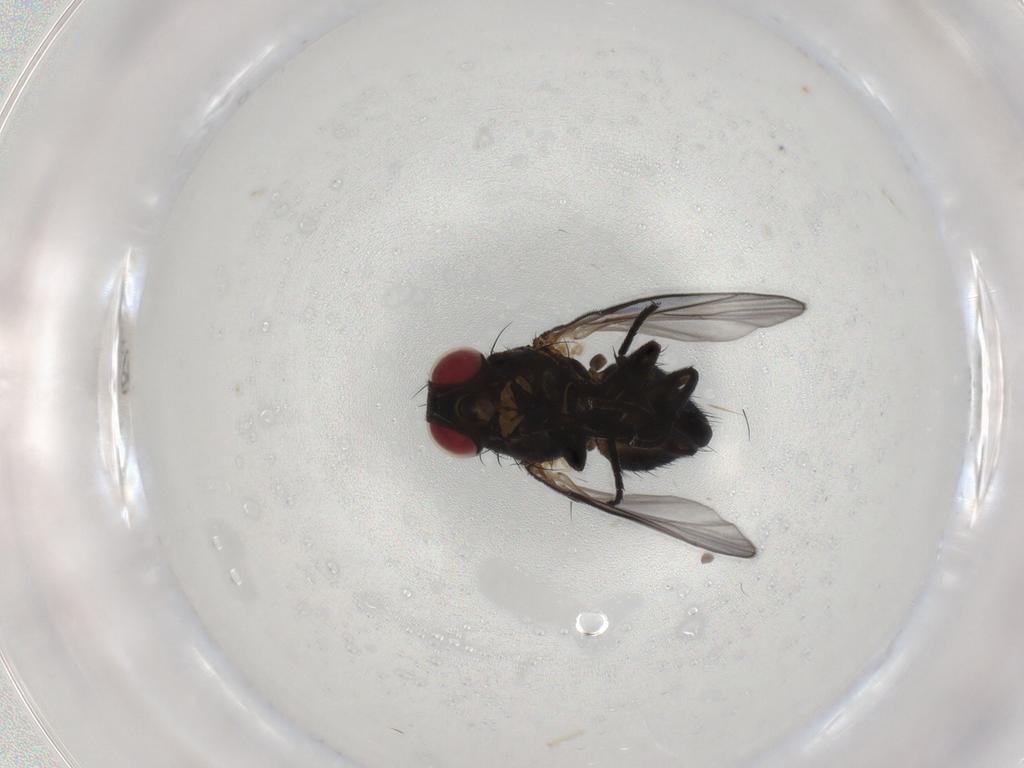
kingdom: Animalia
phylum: Arthropoda
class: Insecta
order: Diptera
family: Agromyzidae
